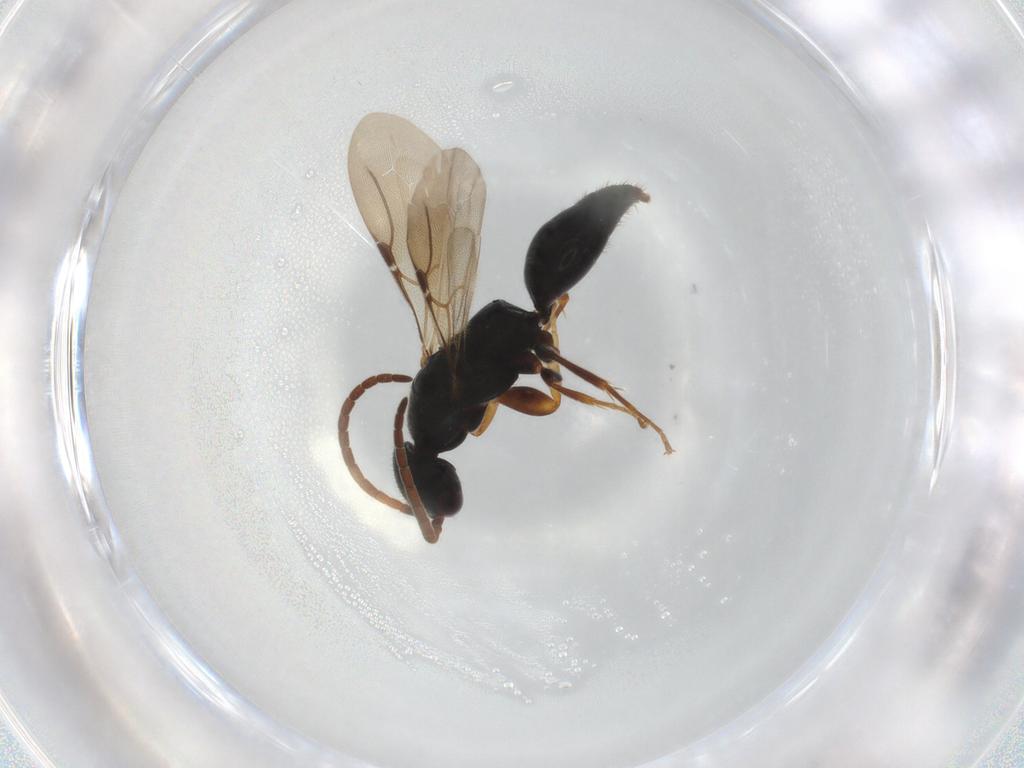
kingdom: Animalia
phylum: Arthropoda
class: Insecta
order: Hymenoptera
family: Bethylidae
